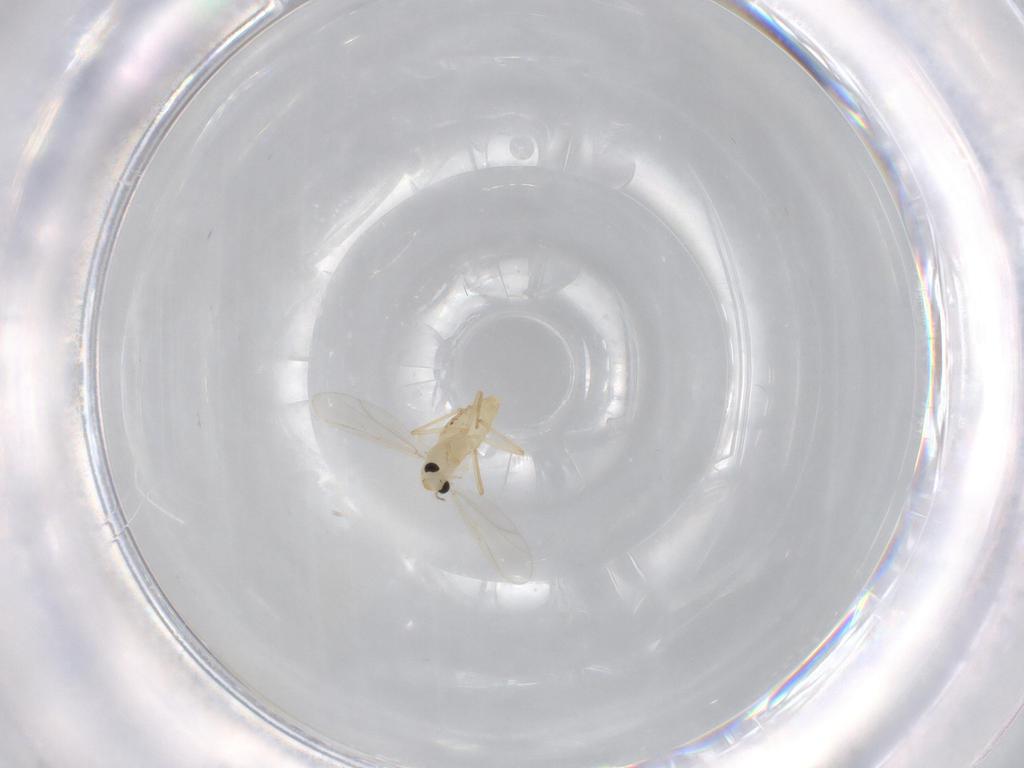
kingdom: Animalia
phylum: Arthropoda
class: Insecta
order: Diptera
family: Chironomidae
